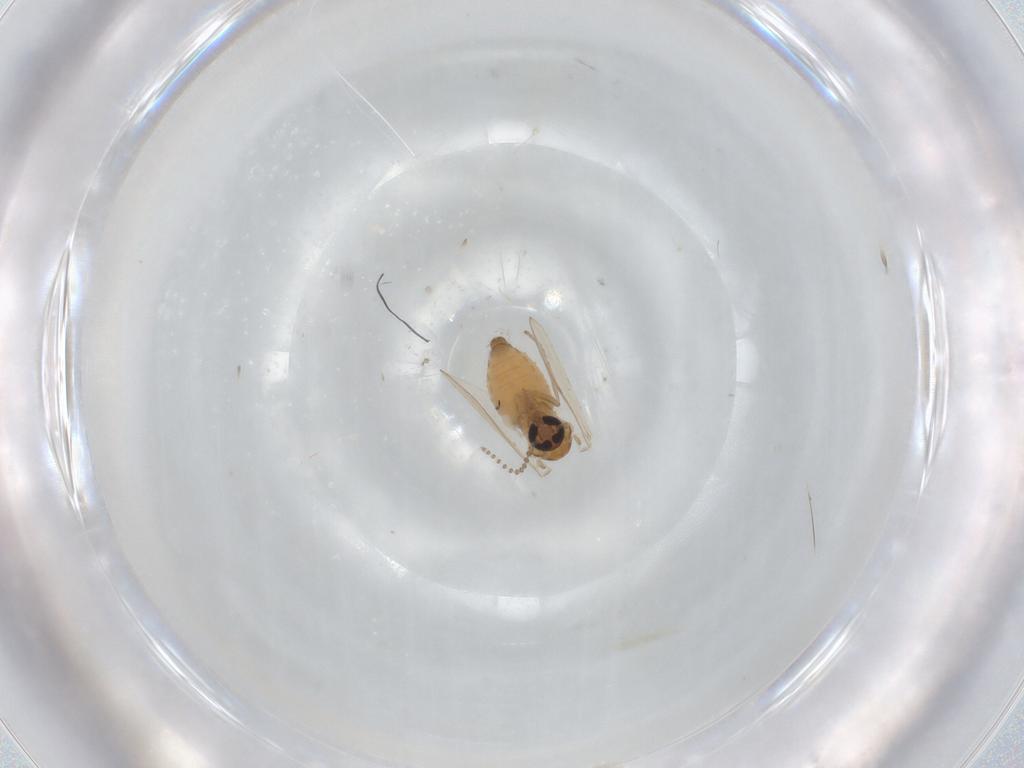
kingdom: Animalia
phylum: Arthropoda
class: Insecta
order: Diptera
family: Psychodidae
